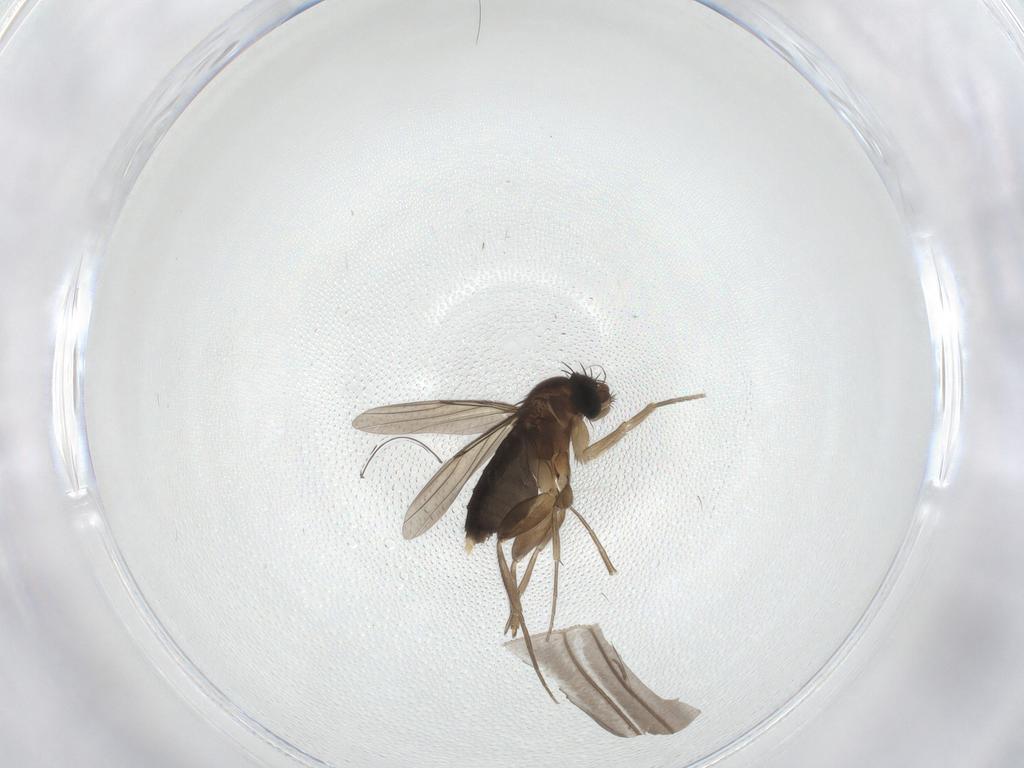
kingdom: Animalia
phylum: Arthropoda
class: Insecta
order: Diptera
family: Phoridae
